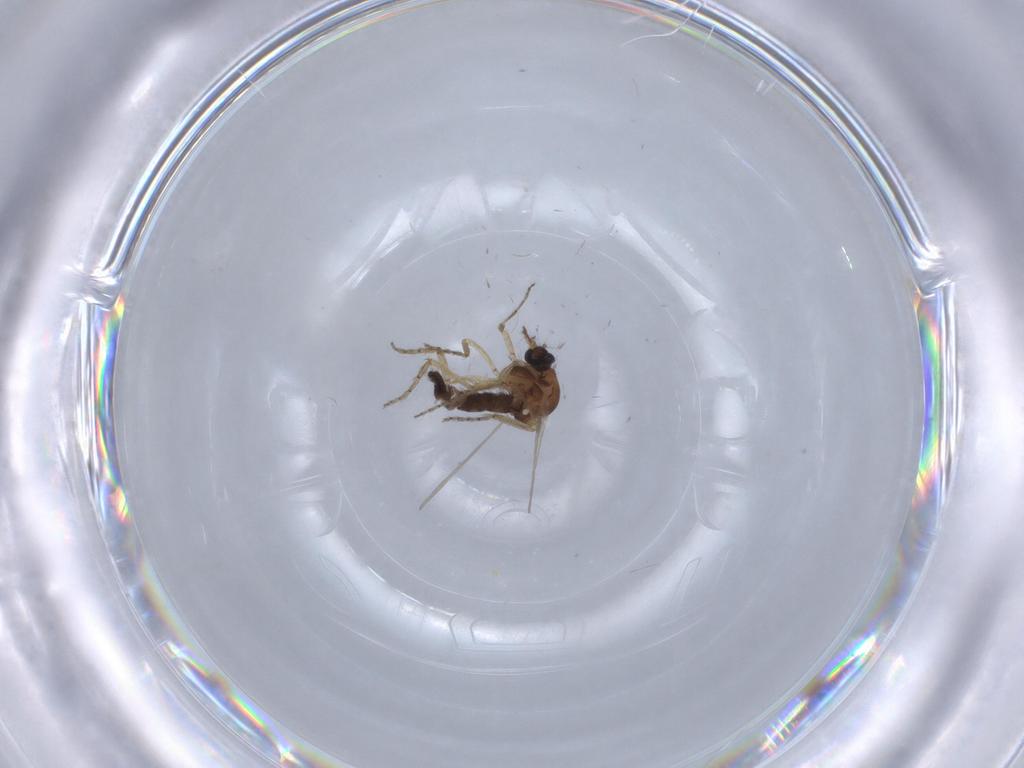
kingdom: Animalia
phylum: Arthropoda
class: Insecta
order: Diptera
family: Ceratopogonidae
